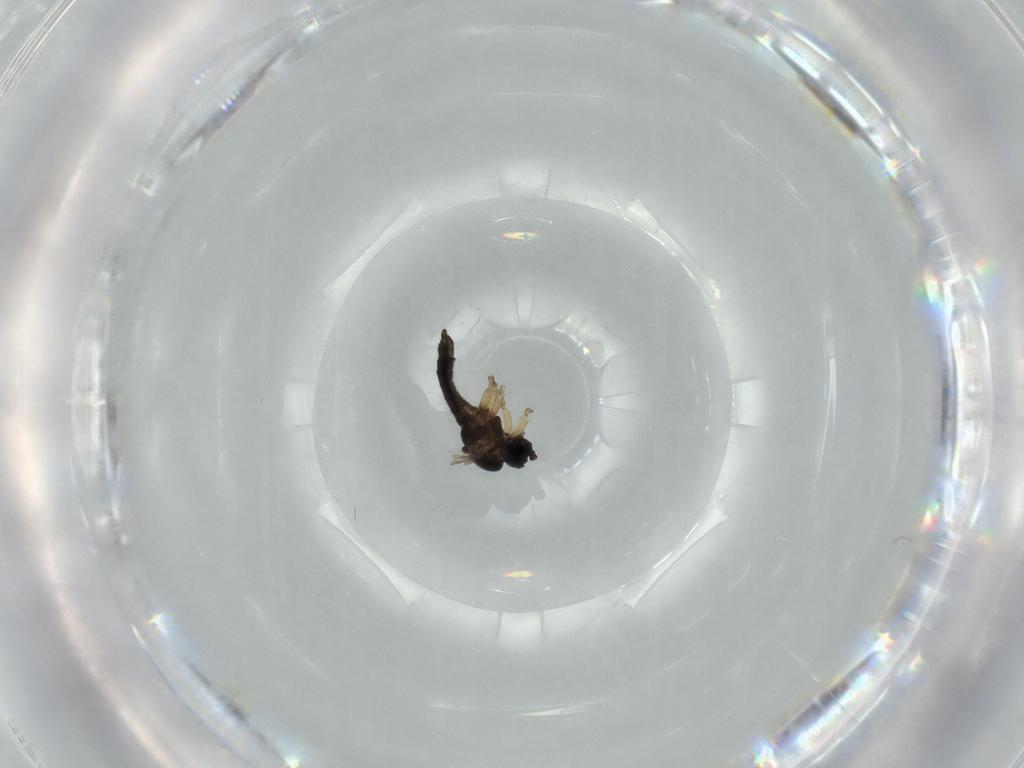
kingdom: Animalia
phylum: Arthropoda
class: Insecta
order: Diptera
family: Sciaridae
